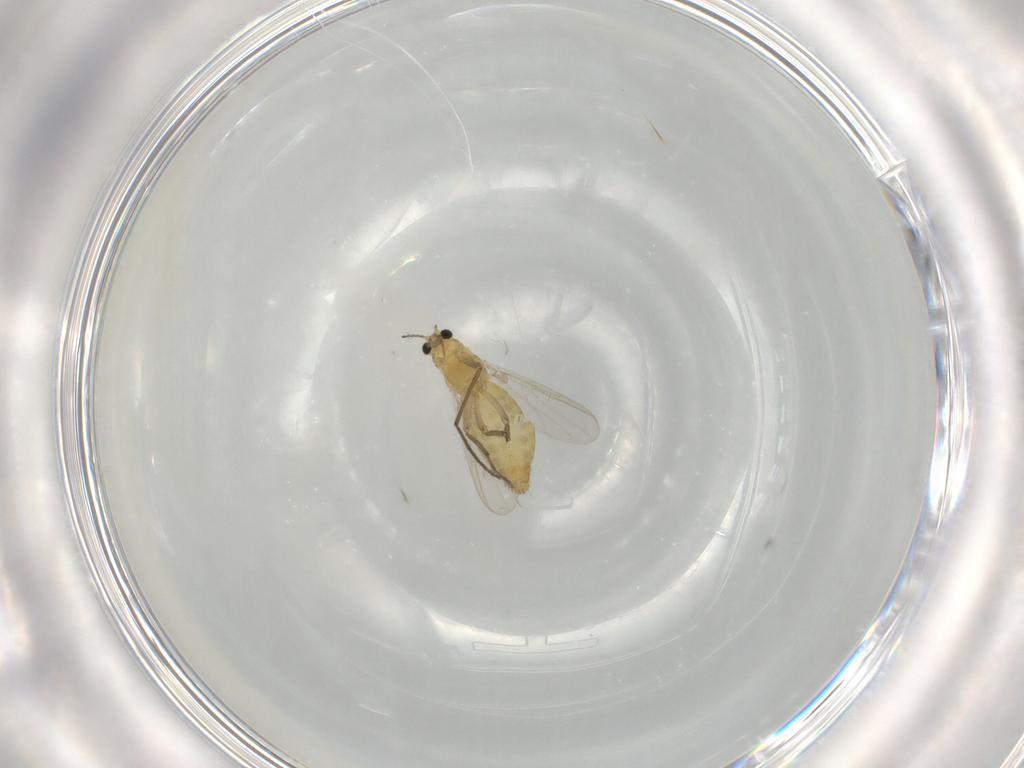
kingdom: Animalia
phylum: Arthropoda
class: Insecta
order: Diptera
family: Chironomidae
